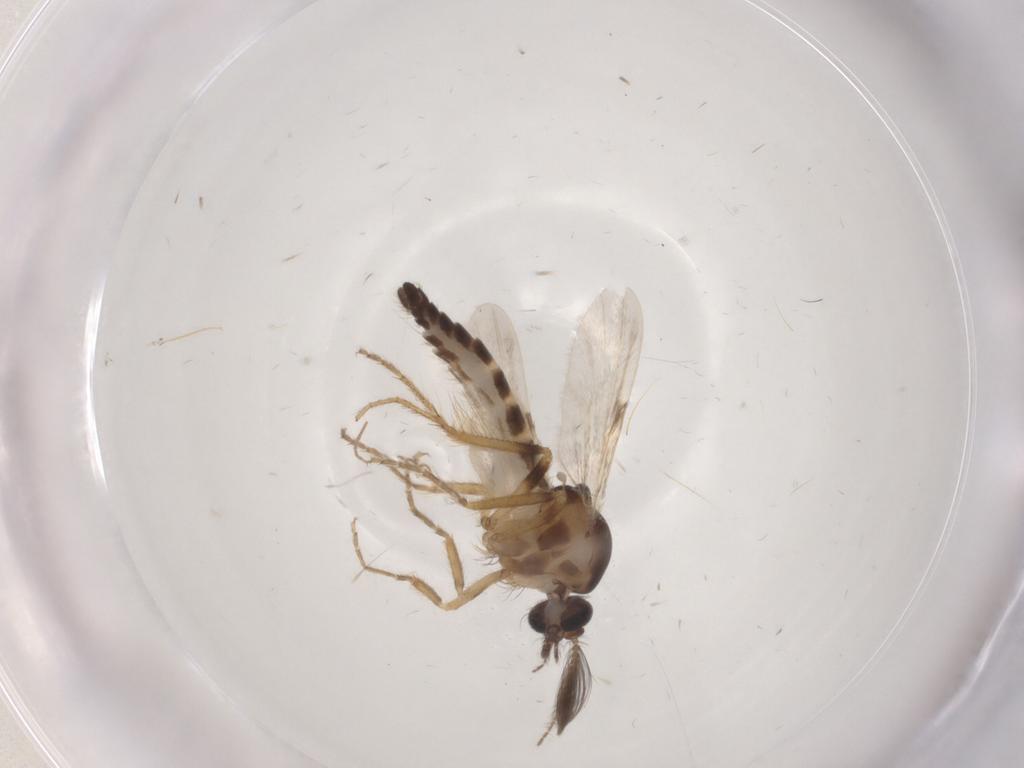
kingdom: Animalia
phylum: Arthropoda
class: Insecta
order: Diptera
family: Ceratopogonidae
